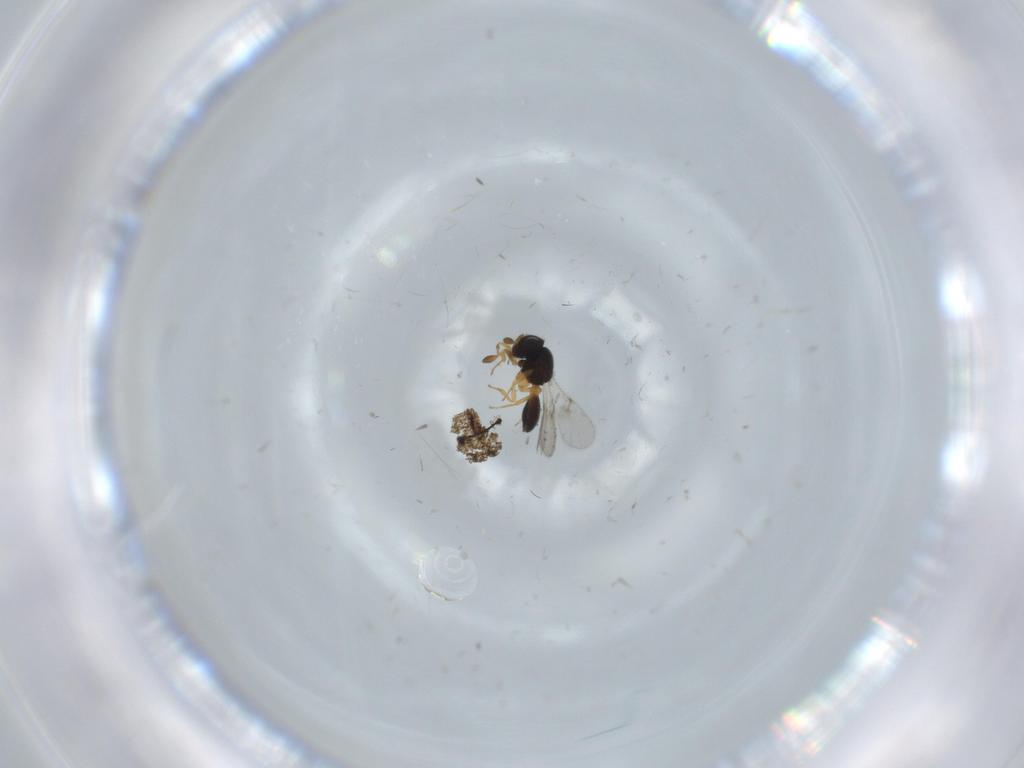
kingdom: Animalia
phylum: Arthropoda
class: Insecta
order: Hymenoptera
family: Scelionidae
